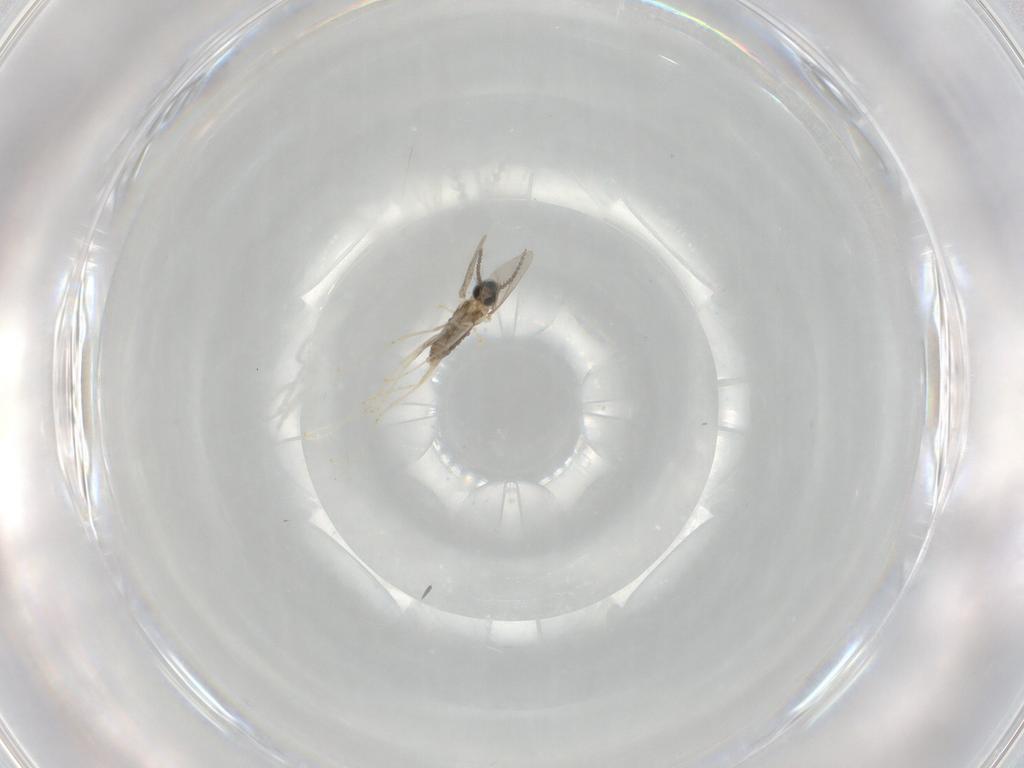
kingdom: Animalia
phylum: Arthropoda
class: Insecta
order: Diptera
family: Cecidomyiidae
